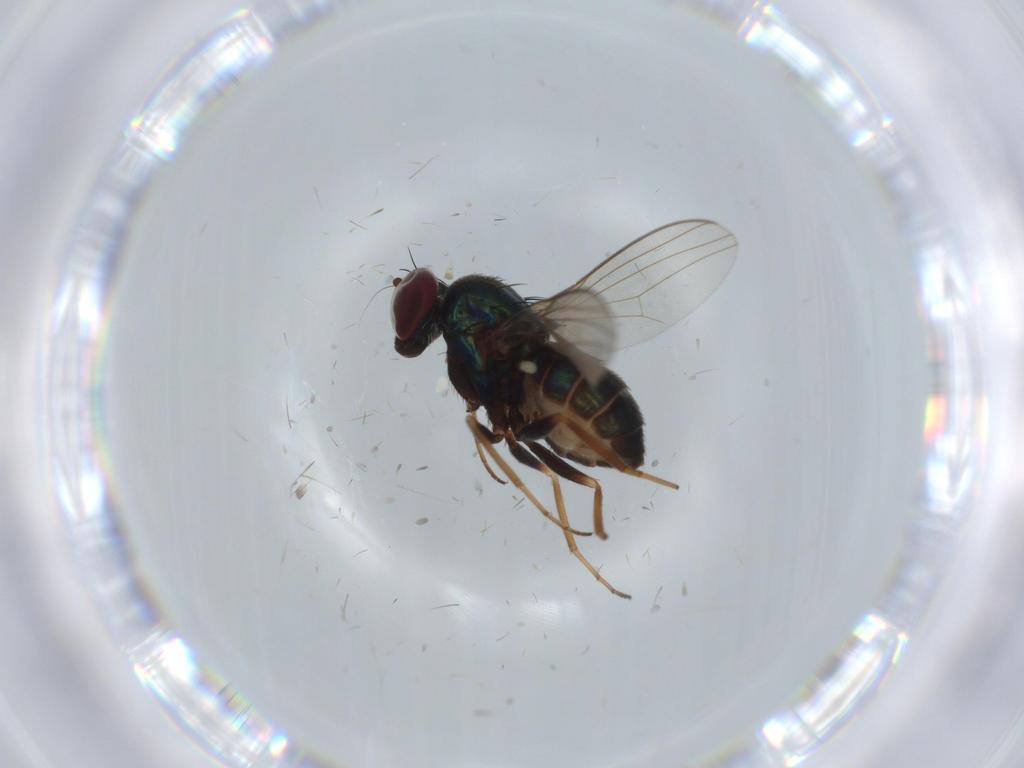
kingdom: Animalia
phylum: Arthropoda
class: Insecta
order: Diptera
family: Dolichopodidae
